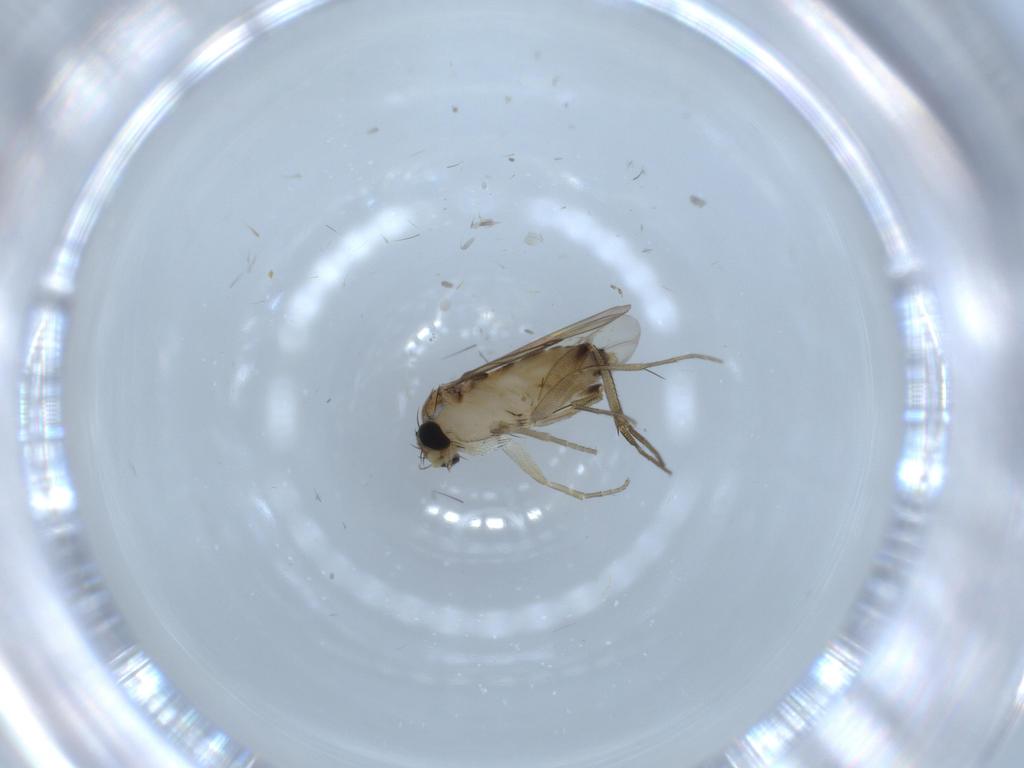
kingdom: Animalia
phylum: Arthropoda
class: Insecta
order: Diptera
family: Phoridae
